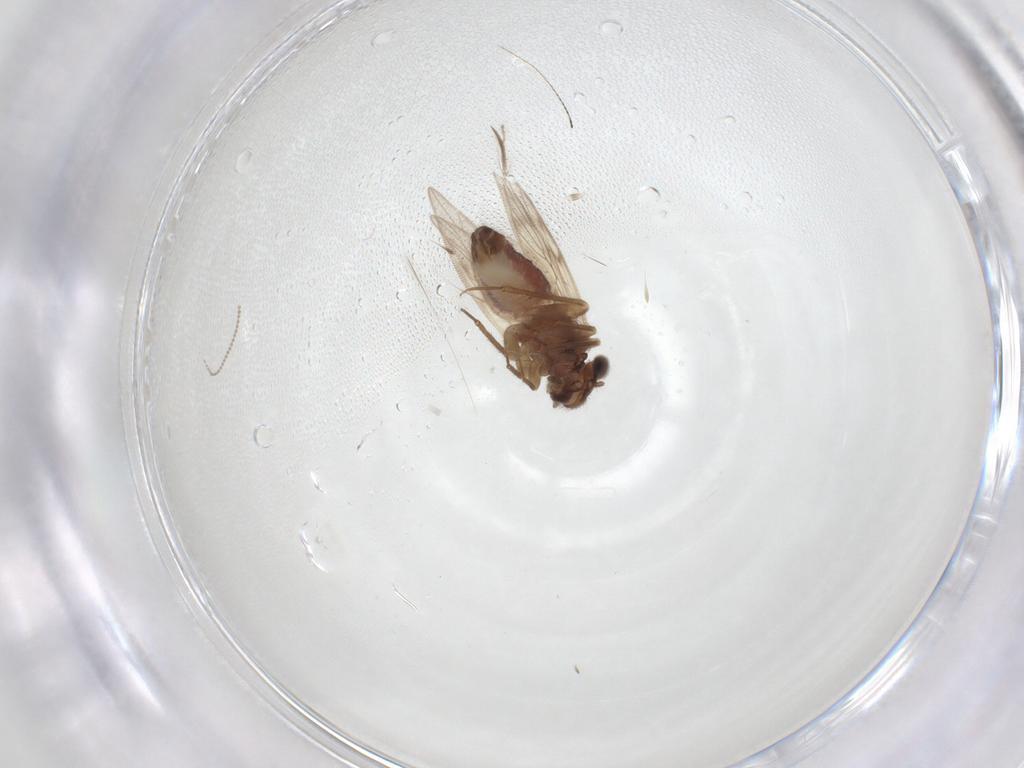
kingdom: Animalia
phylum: Arthropoda
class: Insecta
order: Psocodea
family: Lepidopsocidae
